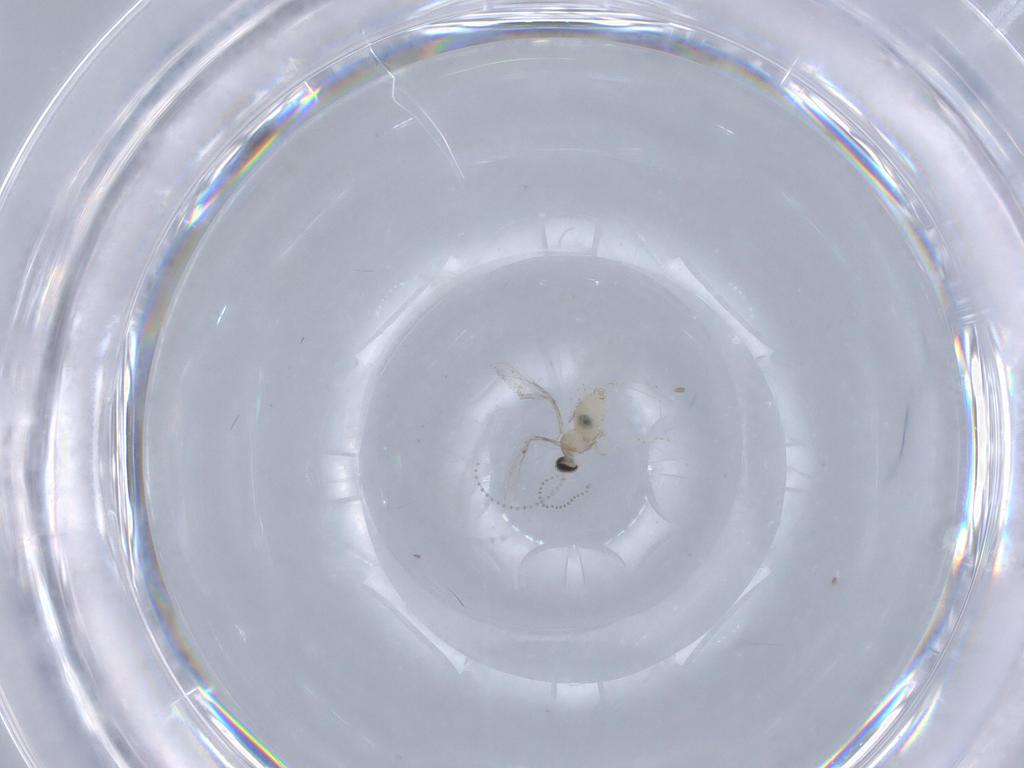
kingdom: Animalia
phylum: Arthropoda
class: Insecta
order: Diptera
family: Cecidomyiidae
